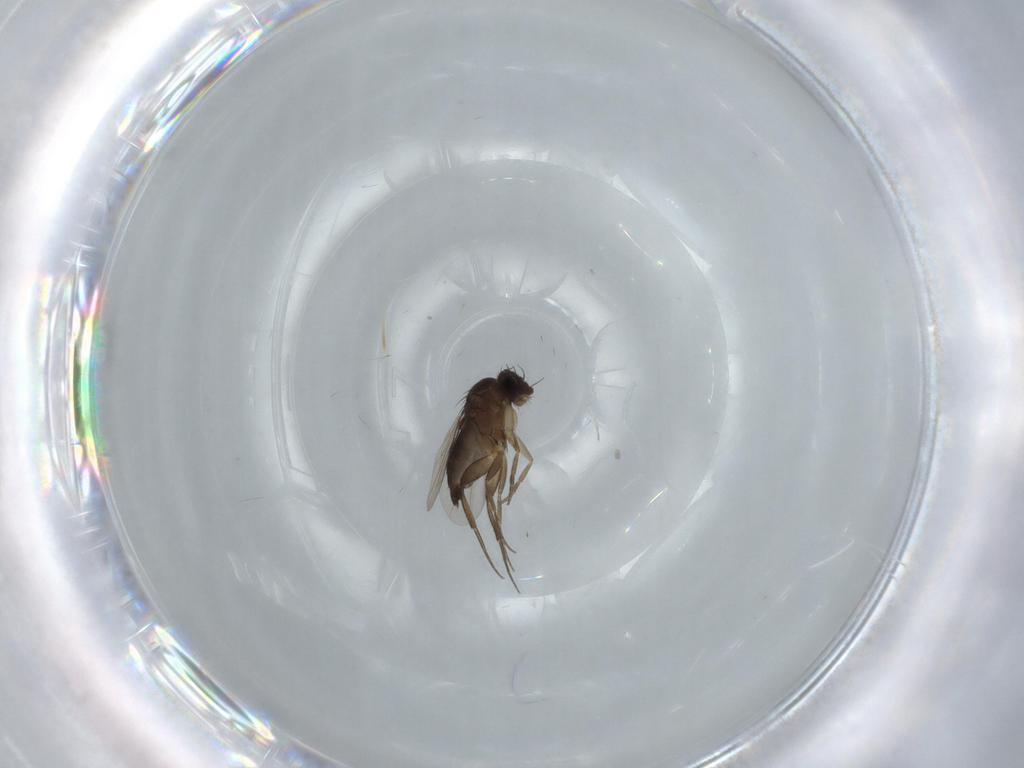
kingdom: Animalia
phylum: Arthropoda
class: Insecta
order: Diptera
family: Phoridae
